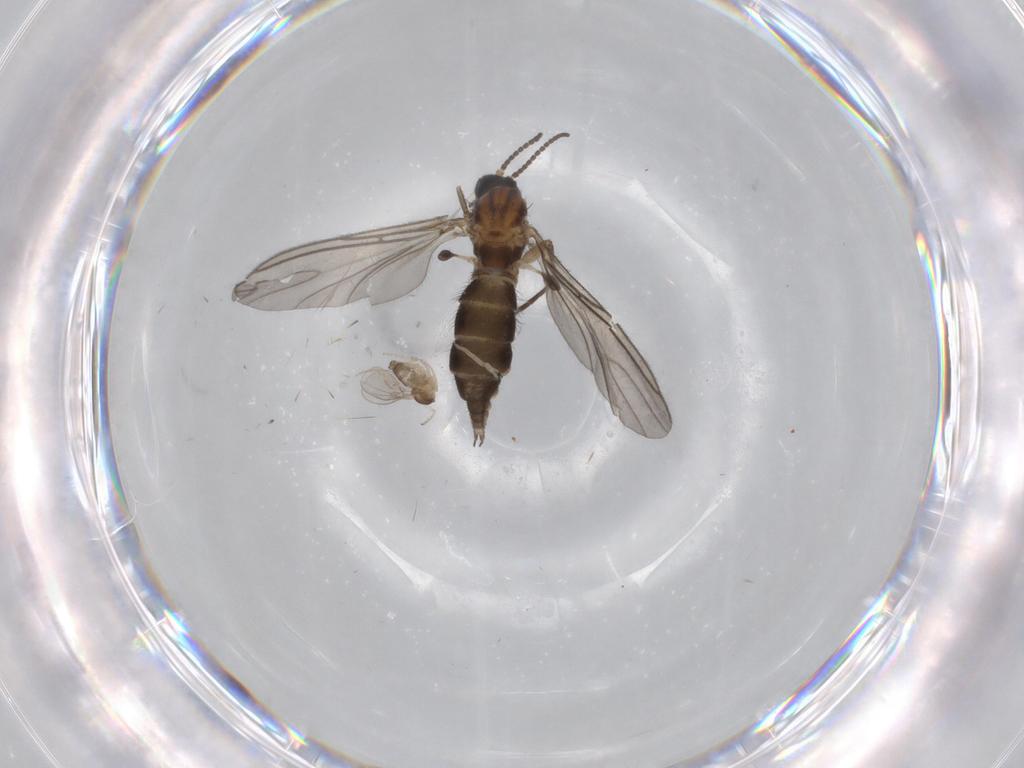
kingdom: Animalia
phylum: Arthropoda
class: Insecta
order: Diptera
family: Sciaridae
